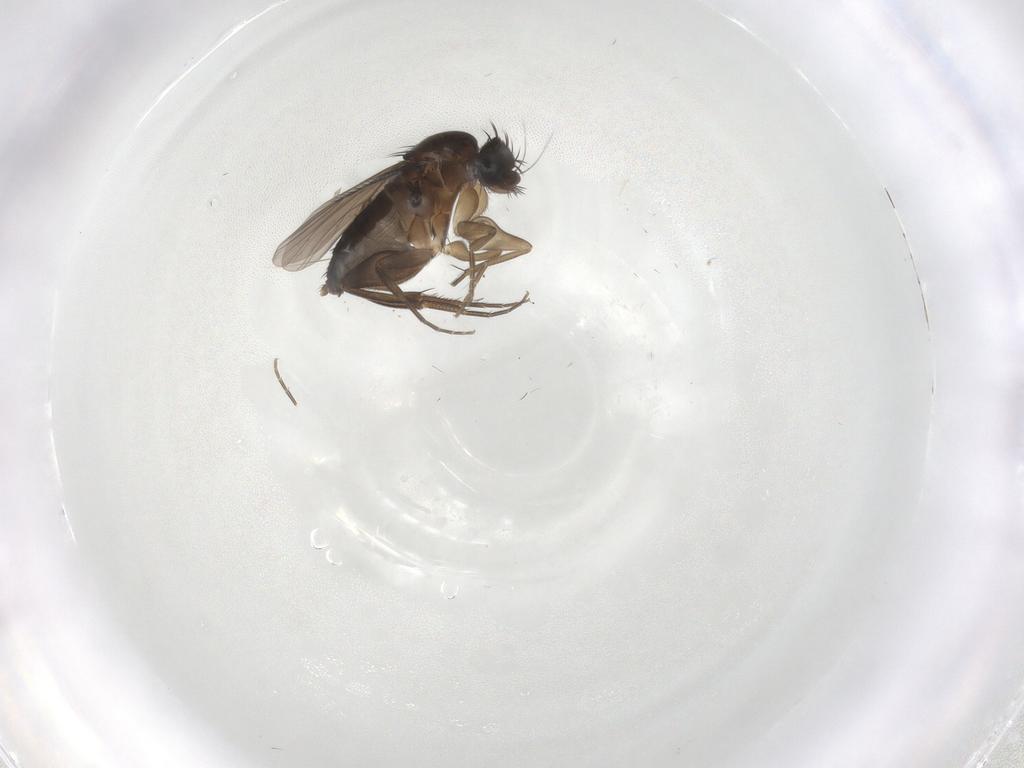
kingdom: Animalia
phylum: Arthropoda
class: Insecta
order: Diptera
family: Phoridae
